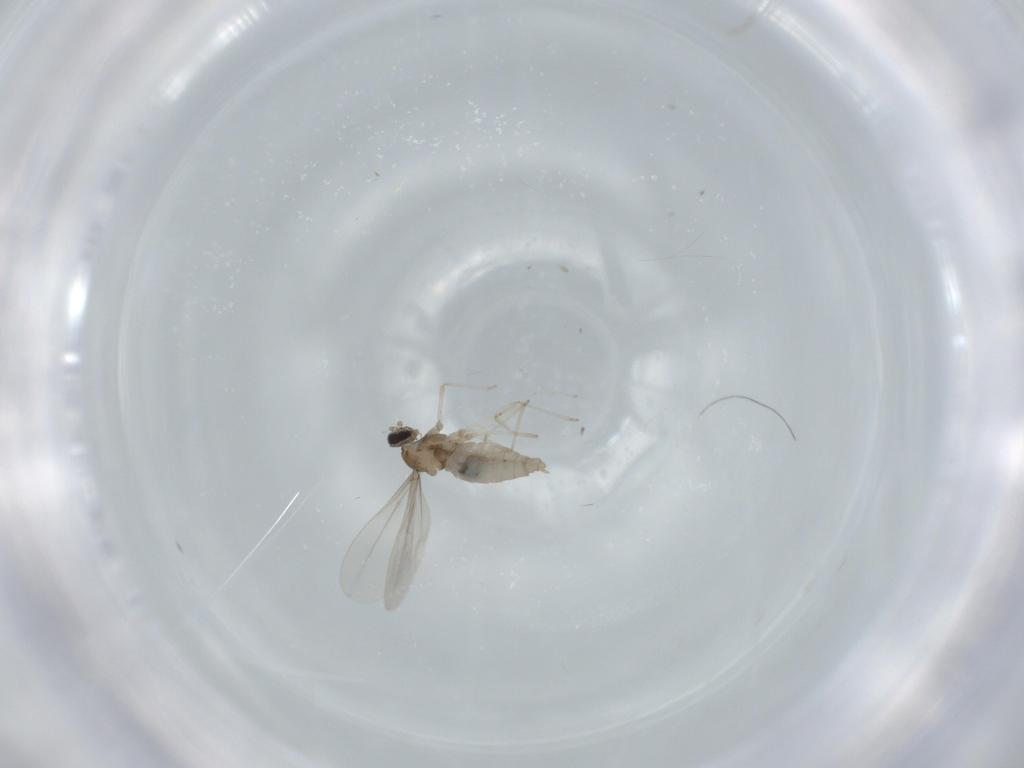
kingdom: Animalia
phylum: Arthropoda
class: Insecta
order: Diptera
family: Cecidomyiidae
